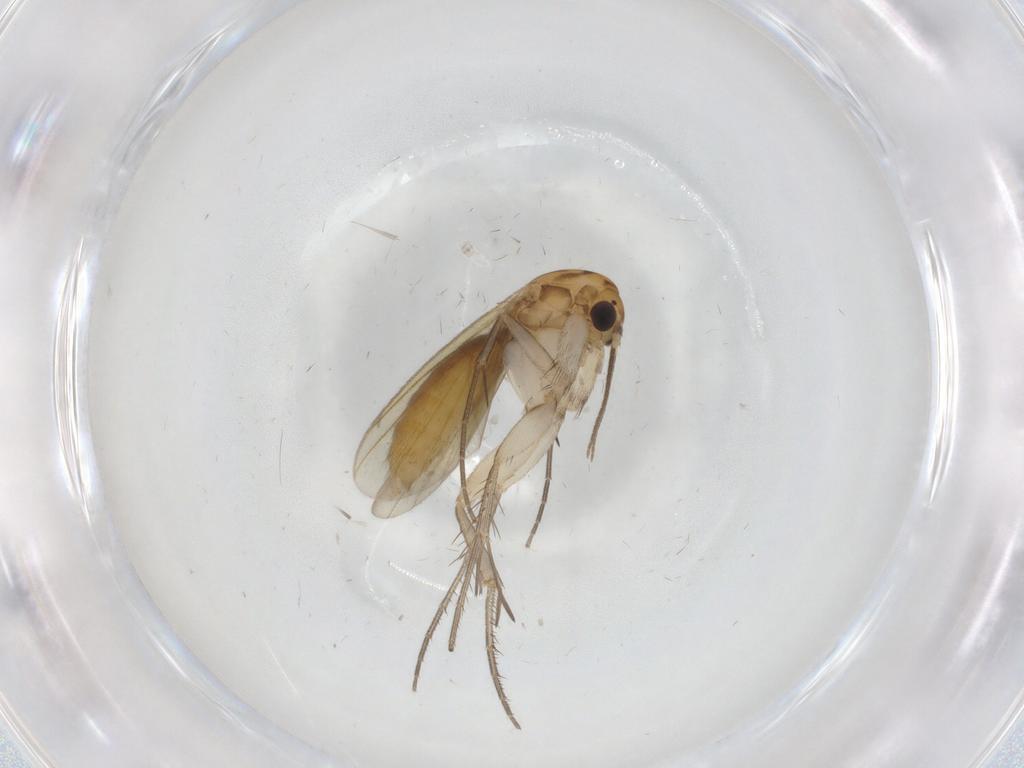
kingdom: Animalia
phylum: Arthropoda
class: Insecta
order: Diptera
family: Mycetophilidae
